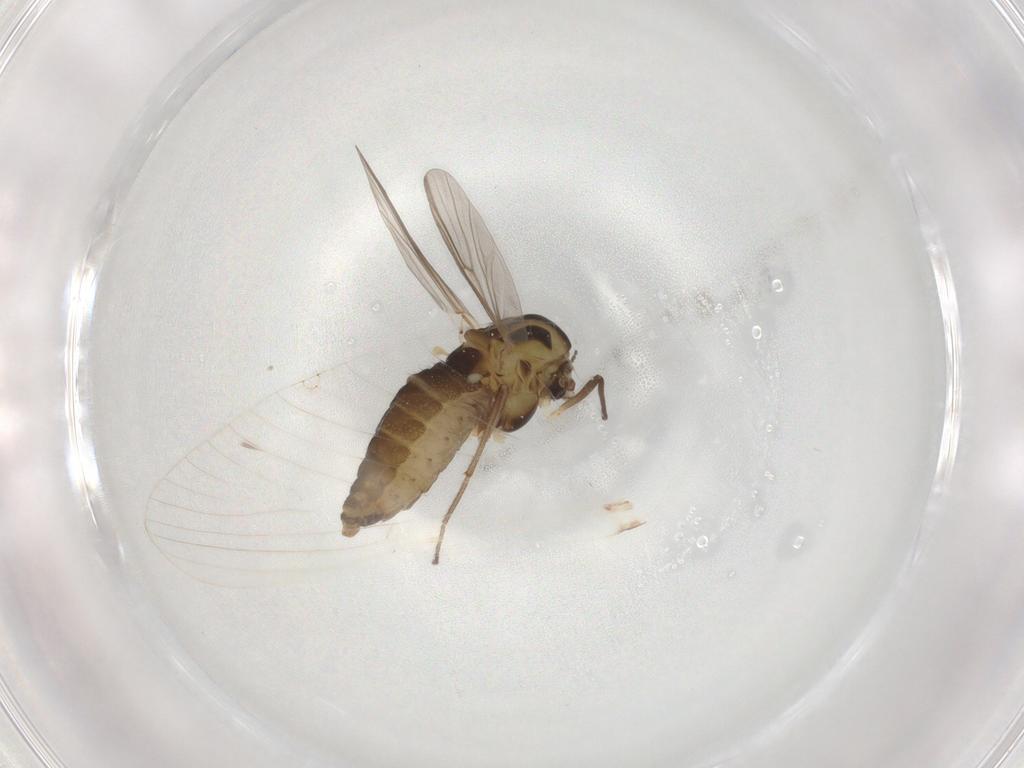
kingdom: Animalia
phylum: Arthropoda
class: Insecta
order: Diptera
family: Chironomidae
